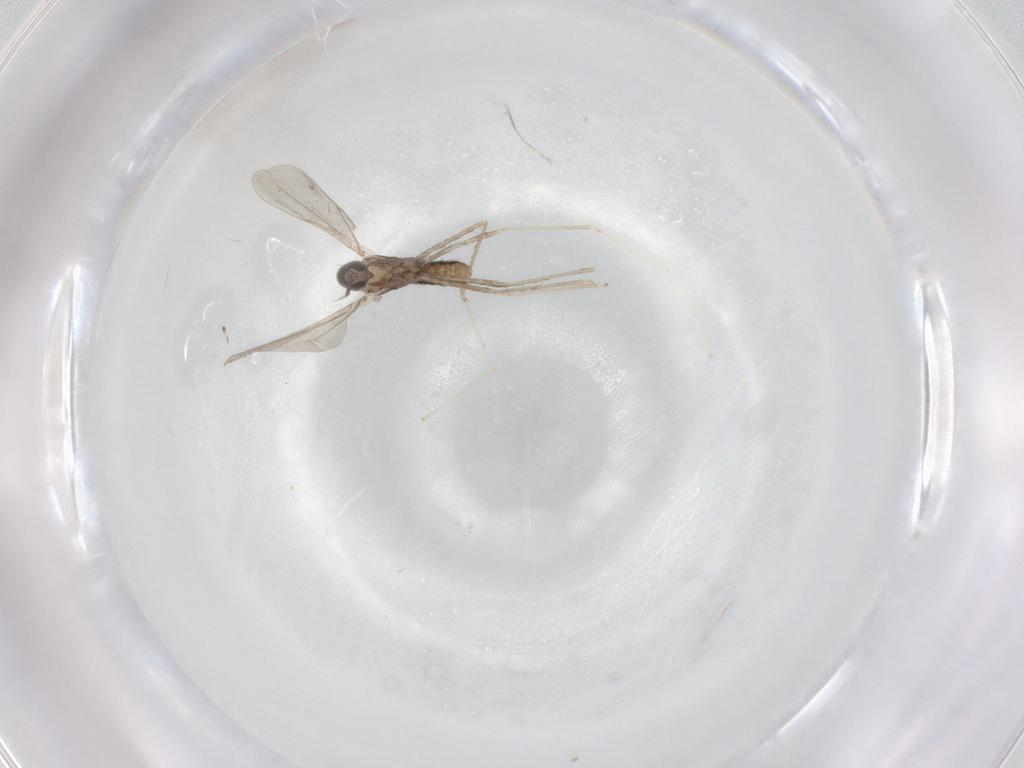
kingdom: Animalia
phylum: Arthropoda
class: Insecta
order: Diptera
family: Cecidomyiidae
